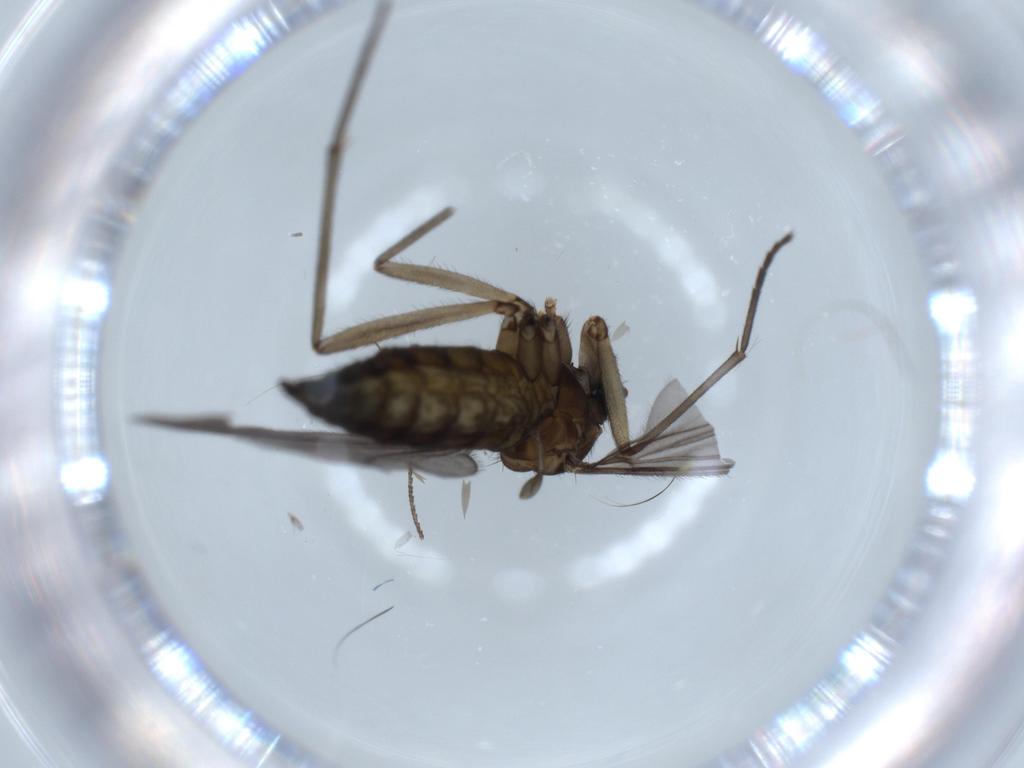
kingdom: Animalia
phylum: Arthropoda
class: Insecta
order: Diptera
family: Sciaridae
